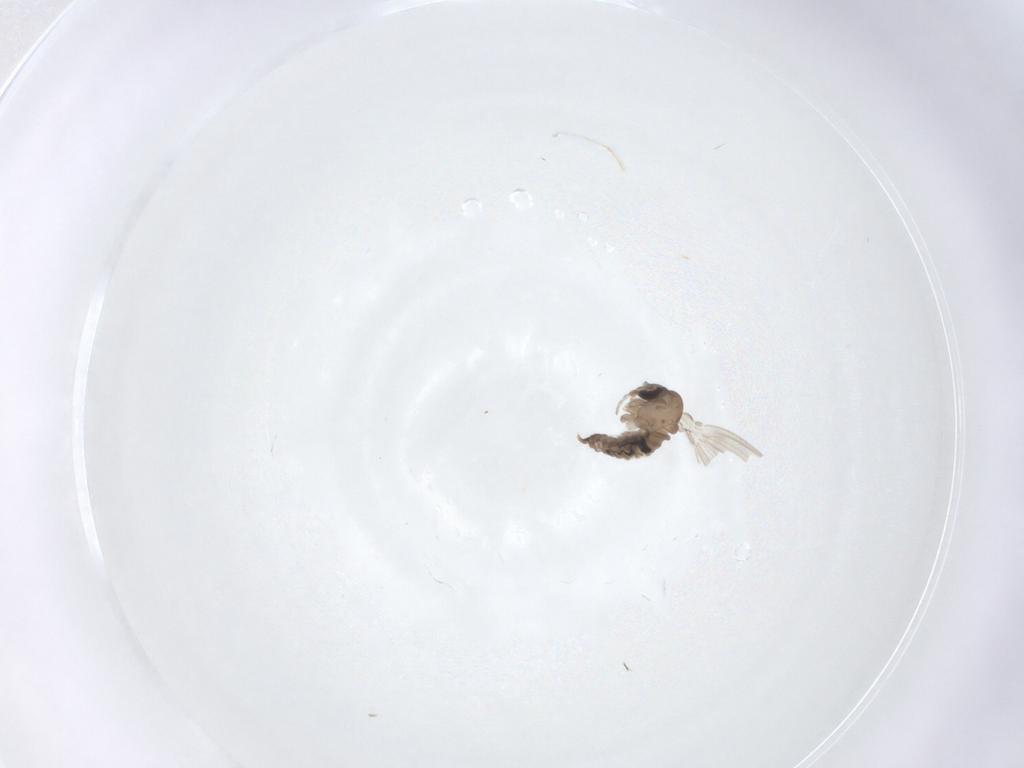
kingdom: Animalia
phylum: Arthropoda
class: Insecta
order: Diptera
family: Psychodidae
